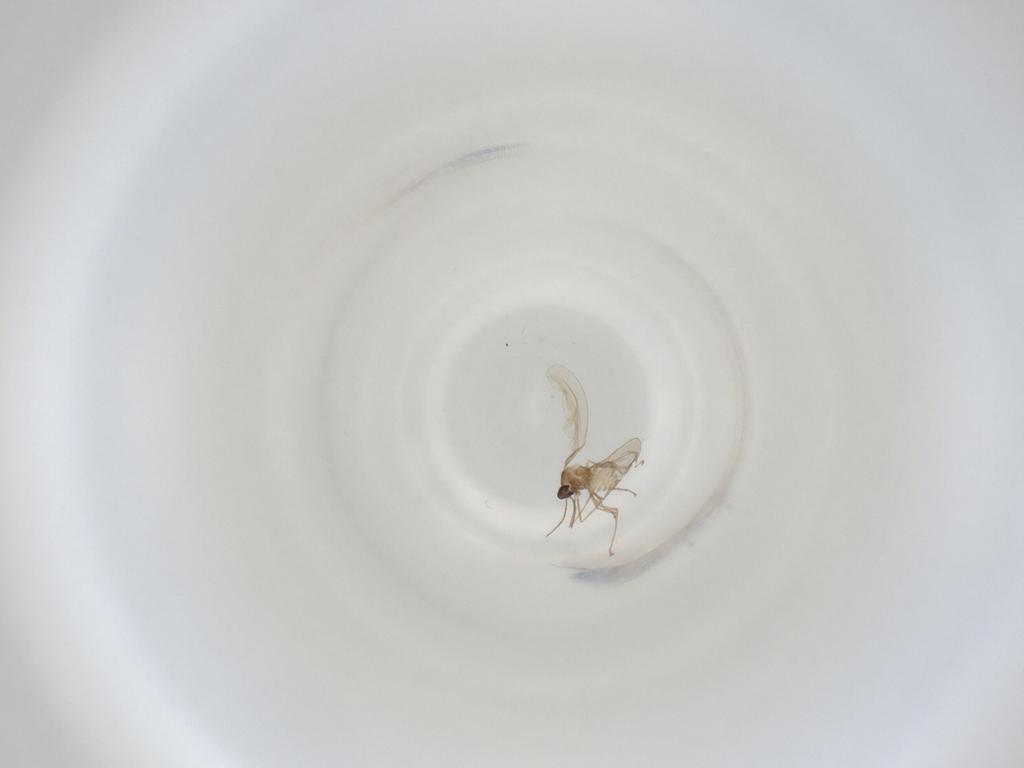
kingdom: Animalia
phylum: Arthropoda
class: Insecta
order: Diptera
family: Cecidomyiidae
